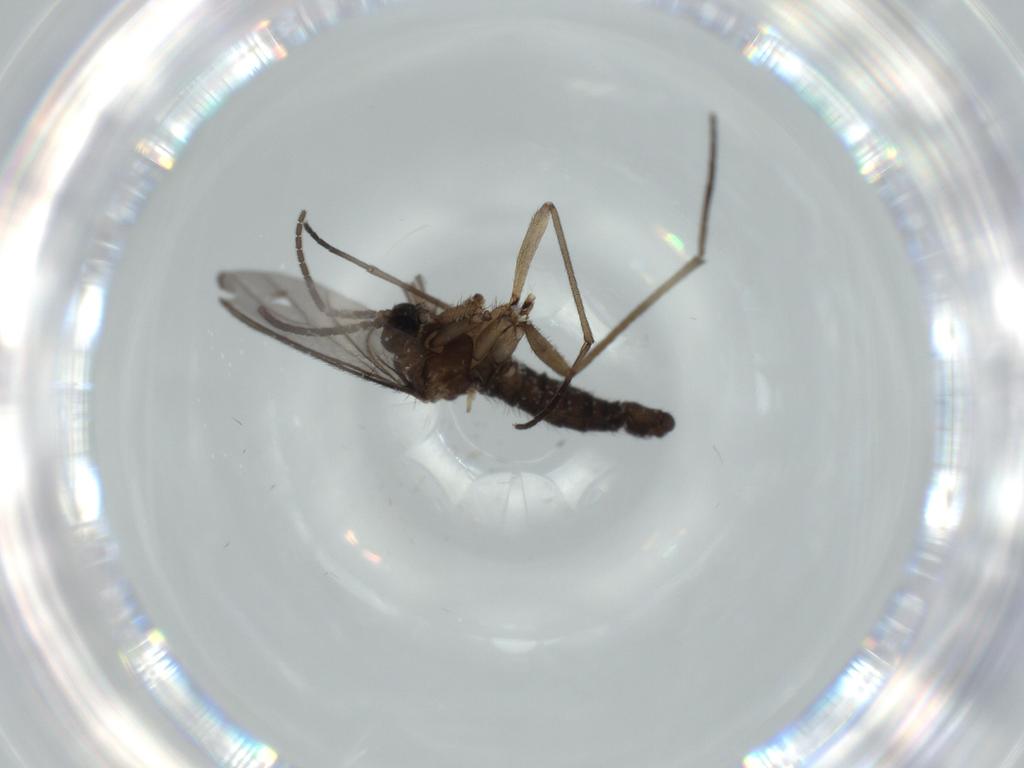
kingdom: Animalia
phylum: Arthropoda
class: Insecta
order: Diptera
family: Sciaridae
